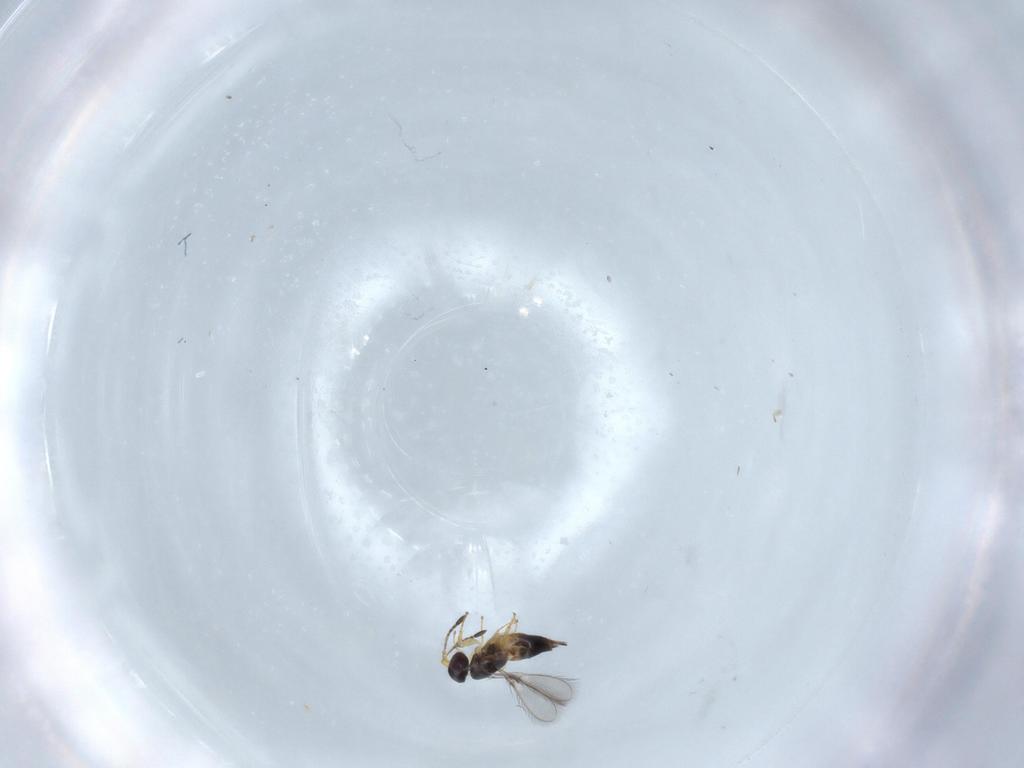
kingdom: Animalia
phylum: Arthropoda
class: Insecta
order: Hymenoptera
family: Mymaridae
